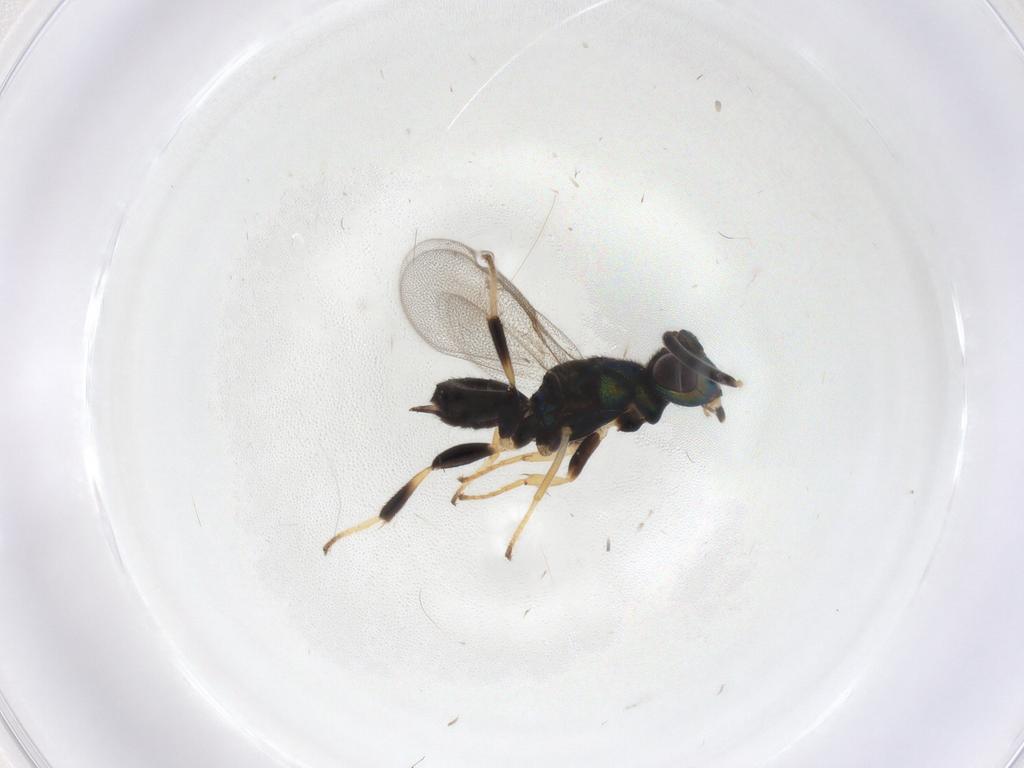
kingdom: Animalia
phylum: Arthropoda
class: Insecta
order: Hymenoptera
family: Eupelmidae
